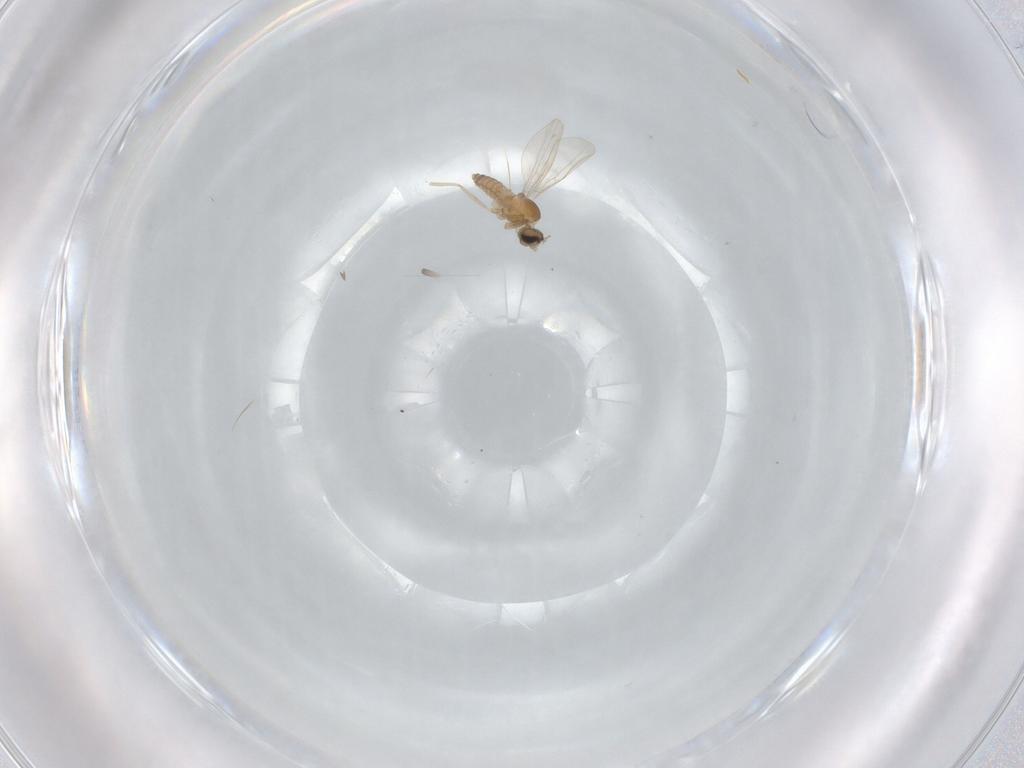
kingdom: Animalia
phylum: Arthropoda
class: Insecta
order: Diptera
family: Cecidomyiidae
